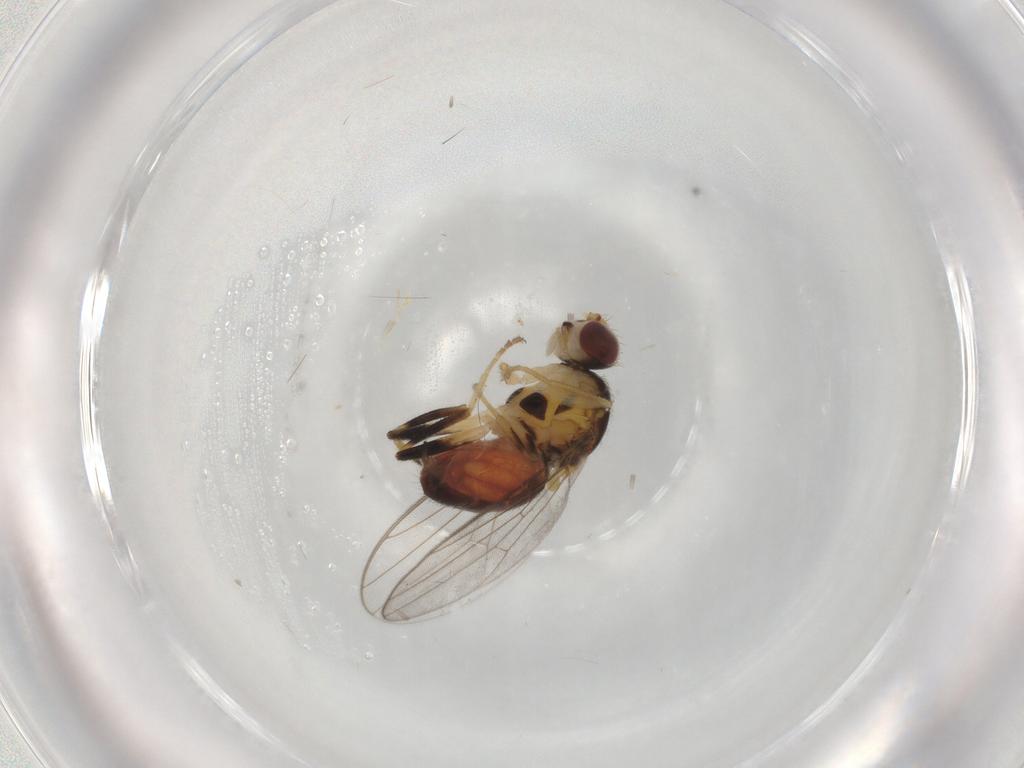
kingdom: Animalia
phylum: Arthropoda
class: Insecta
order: Diptera
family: Chloropidae
